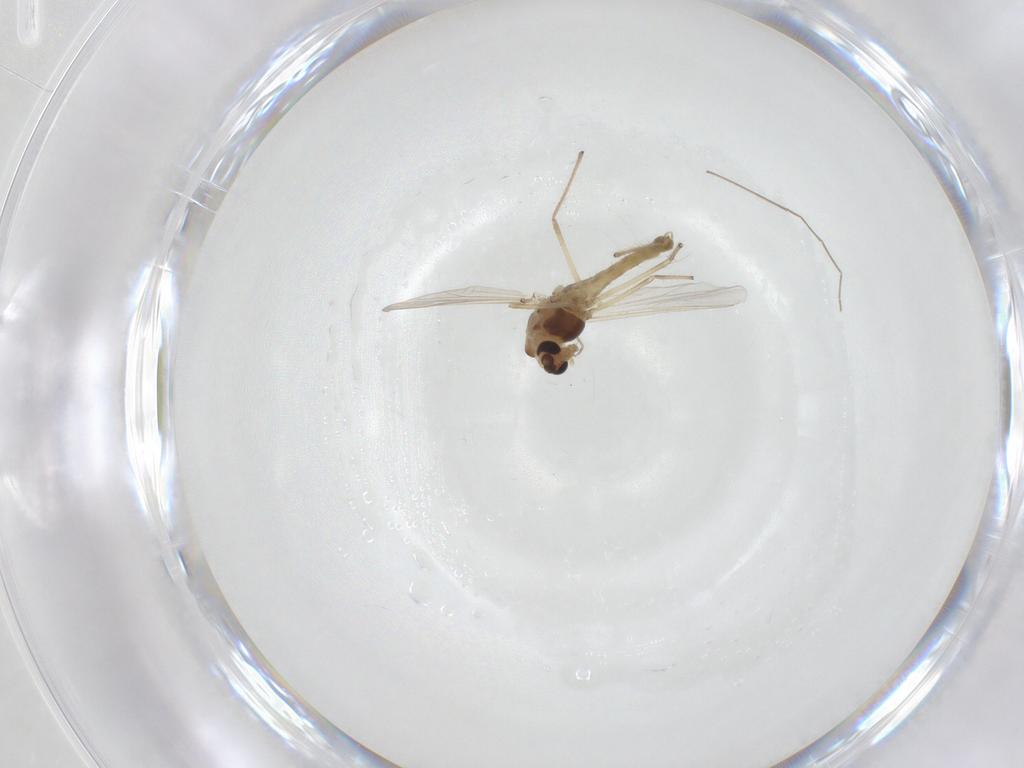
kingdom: Animalia
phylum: Arthropoda
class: Insecta
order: Diptera
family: Chironomidae
